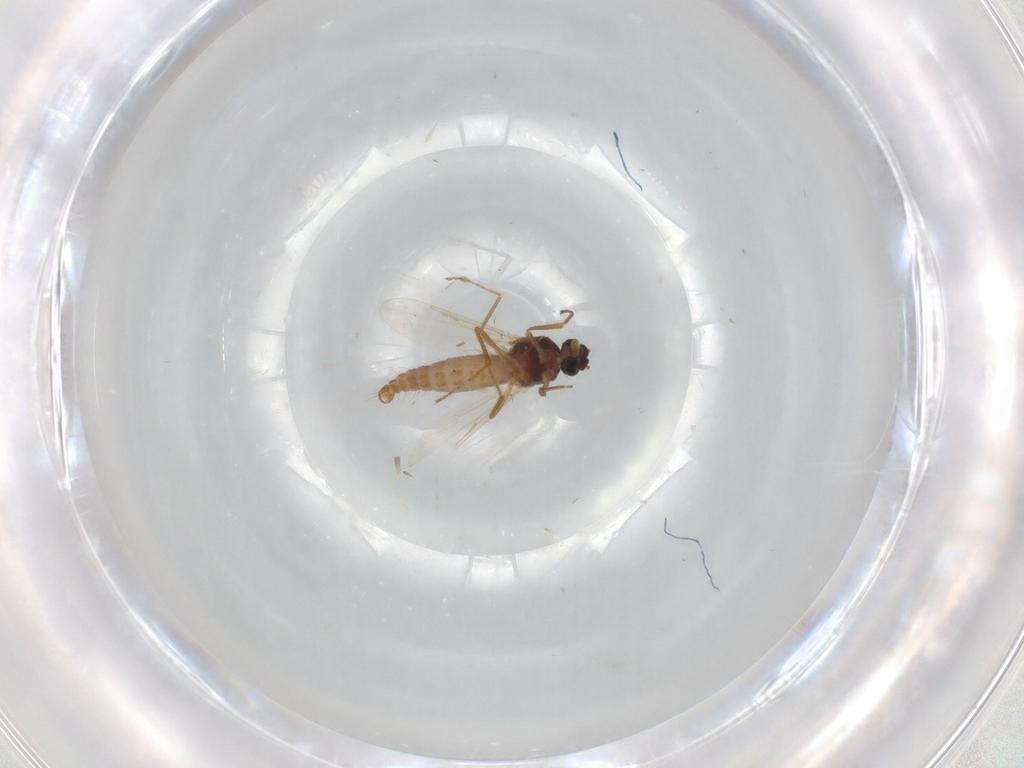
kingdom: Animalia
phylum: Arthropoda
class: Insecta
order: Diptera
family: Ceratopogonidae
